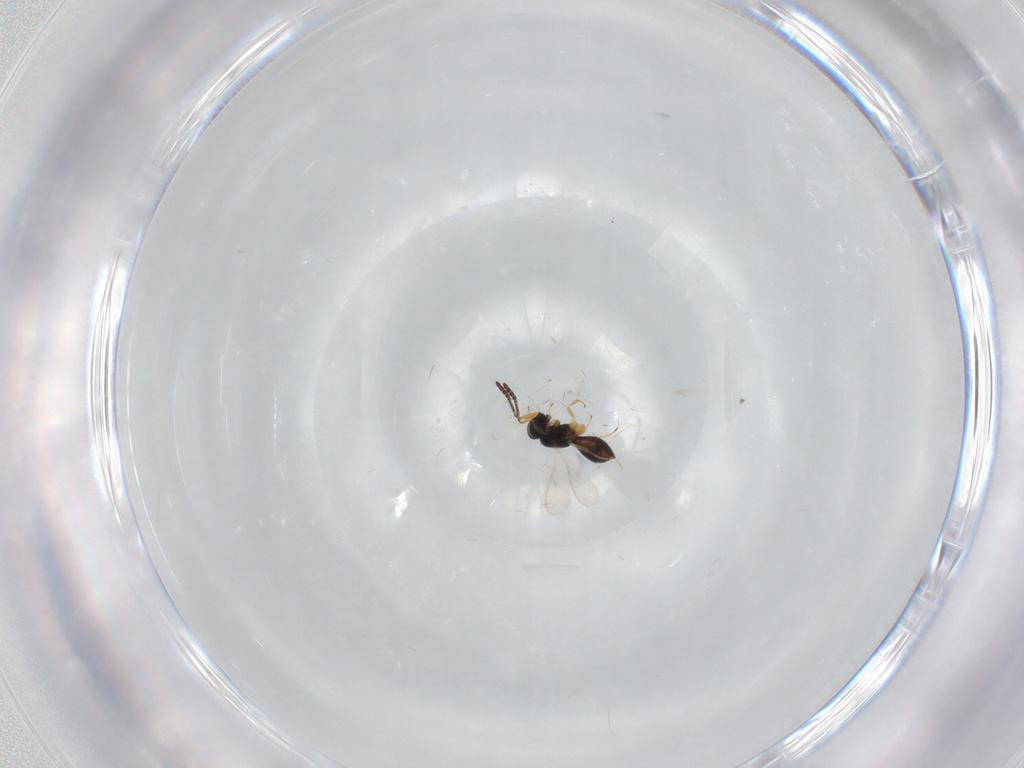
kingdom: Animalia
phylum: Arthropoda
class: Insecta
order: Hymenoptera
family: Scelionidae
